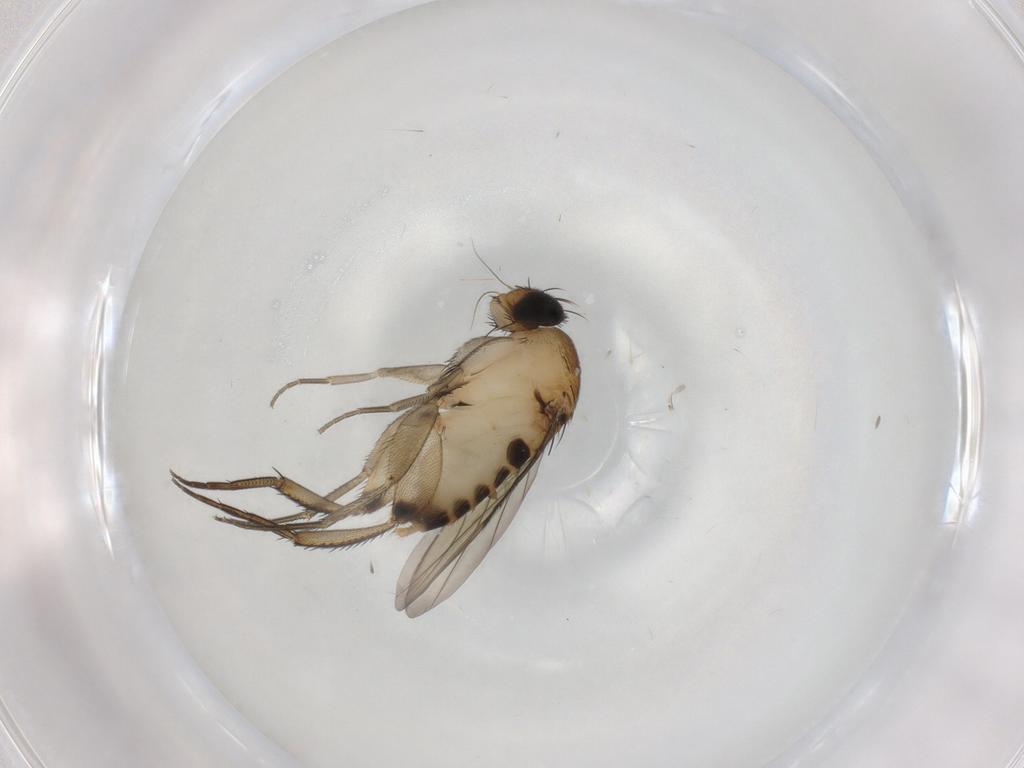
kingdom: Animalia
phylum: Arthropoda
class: Insecta
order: Diptera
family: Phoridae
